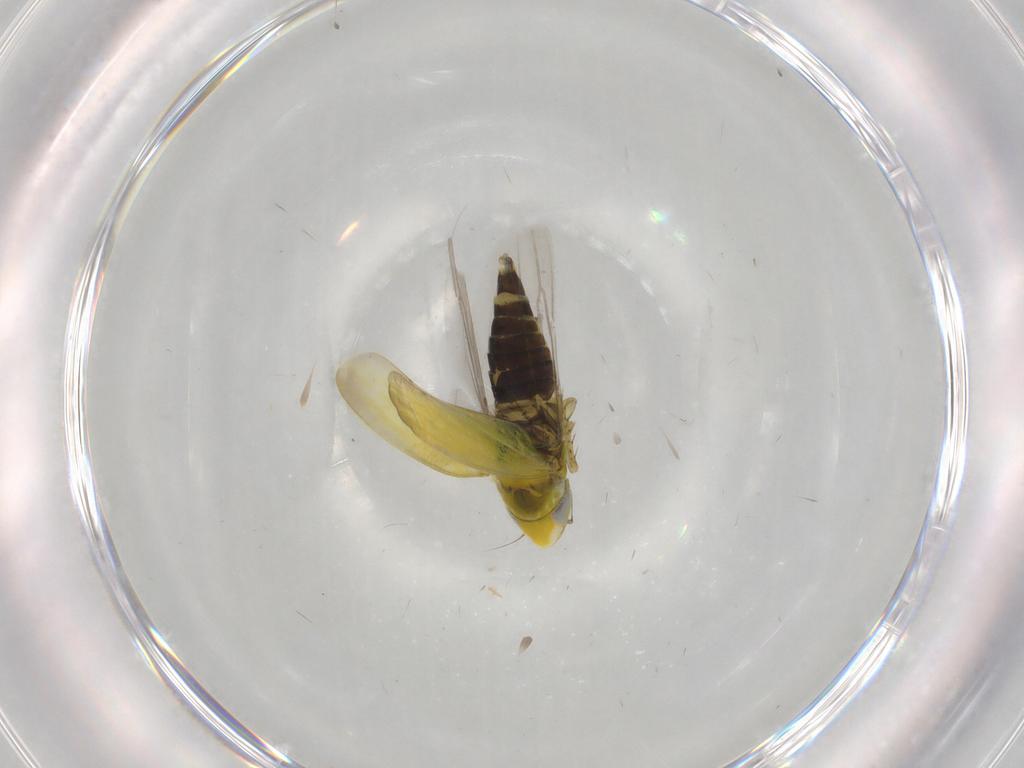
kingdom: Animalia
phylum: Arthropoda
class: Insecta
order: Hemiptera
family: Cicadellidae
